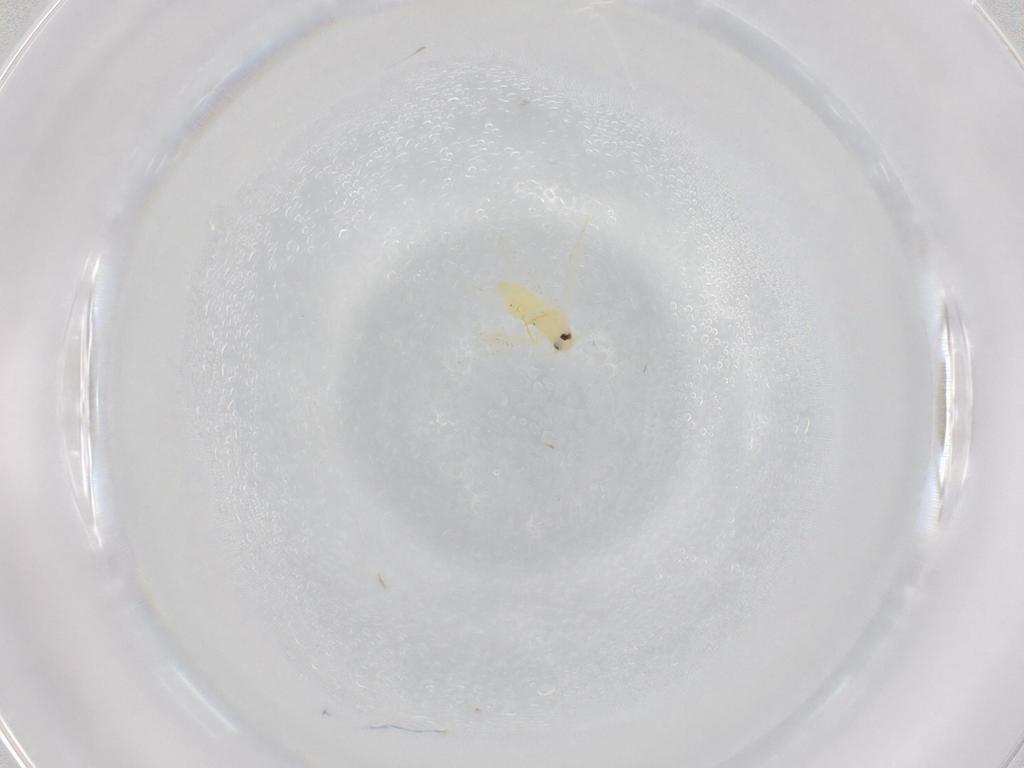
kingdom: Animalia
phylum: Arthropoda
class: Insecta
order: Hemiptera
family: Aleyrodidae
